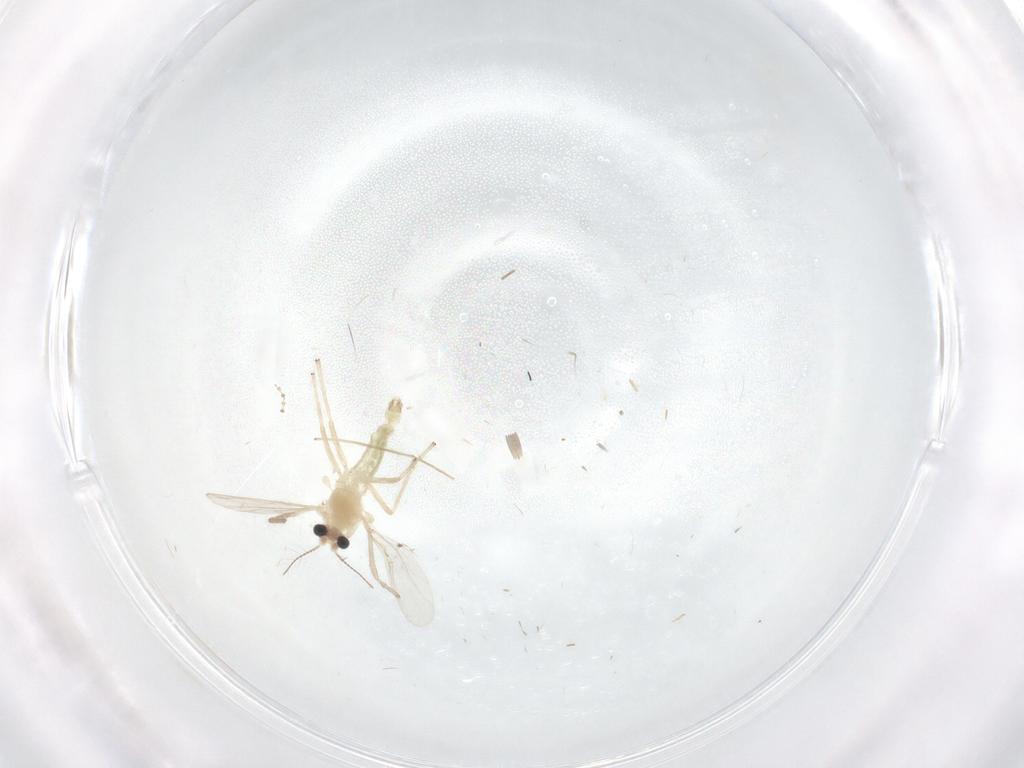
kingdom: Animalia
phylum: Arthropoda
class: Insecta
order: Diptera
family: Chironomidae
